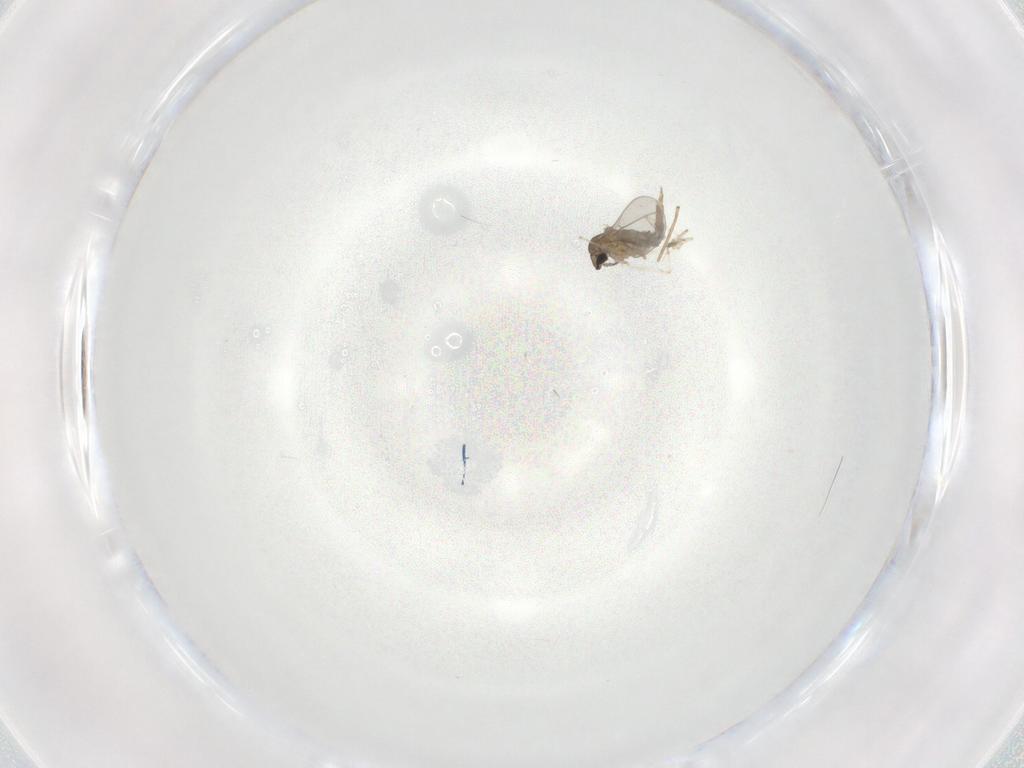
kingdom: Animalia
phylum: Arthropoda
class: Insecta
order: Diptera
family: Cecidomyiidae
